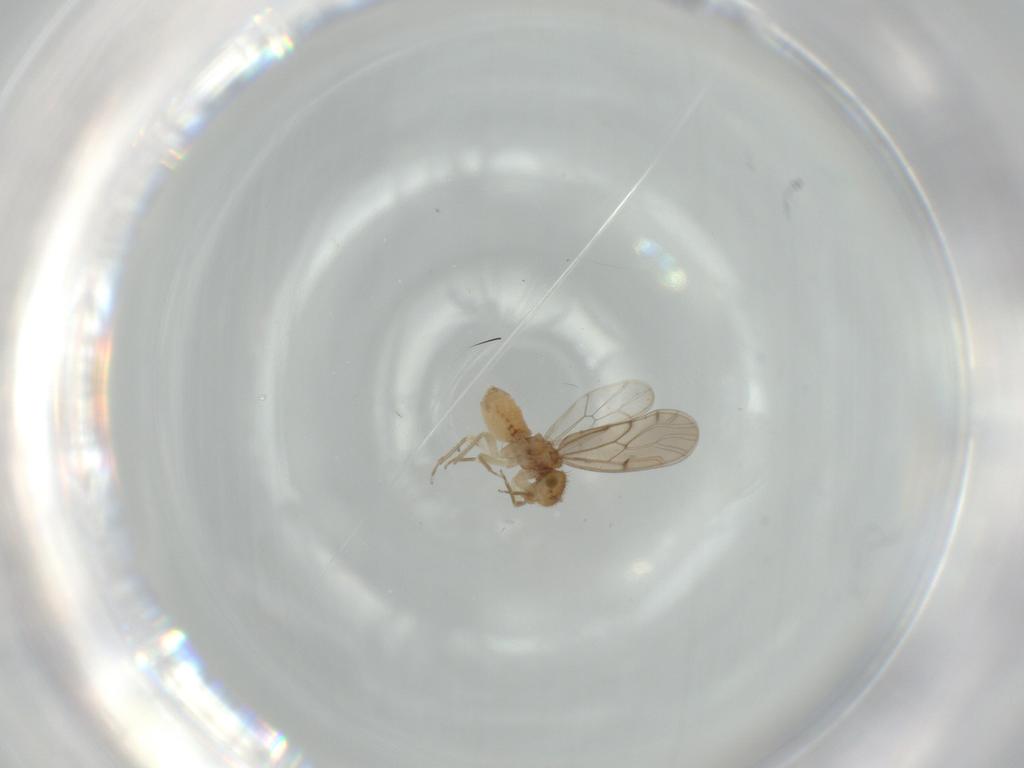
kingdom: Animalia
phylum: Arthropoda
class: Insecta
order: Psocodea
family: Ectopsocidae
